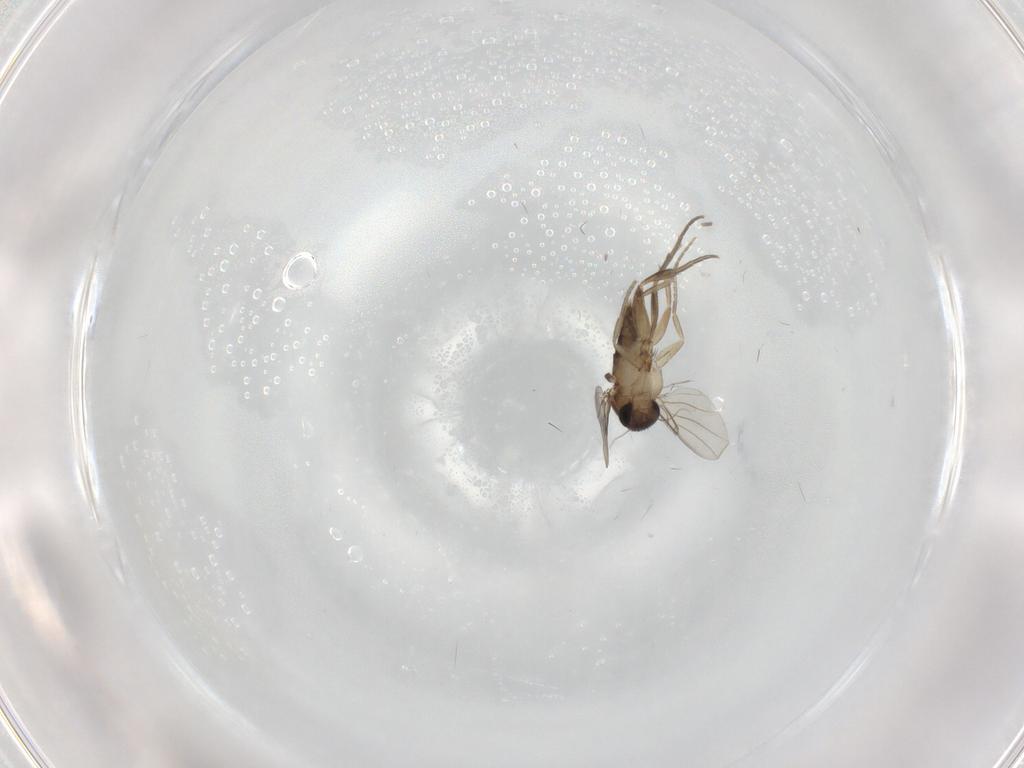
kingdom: Animalia
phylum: Arthropoda
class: Insecta
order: Diptera
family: Phoridae
